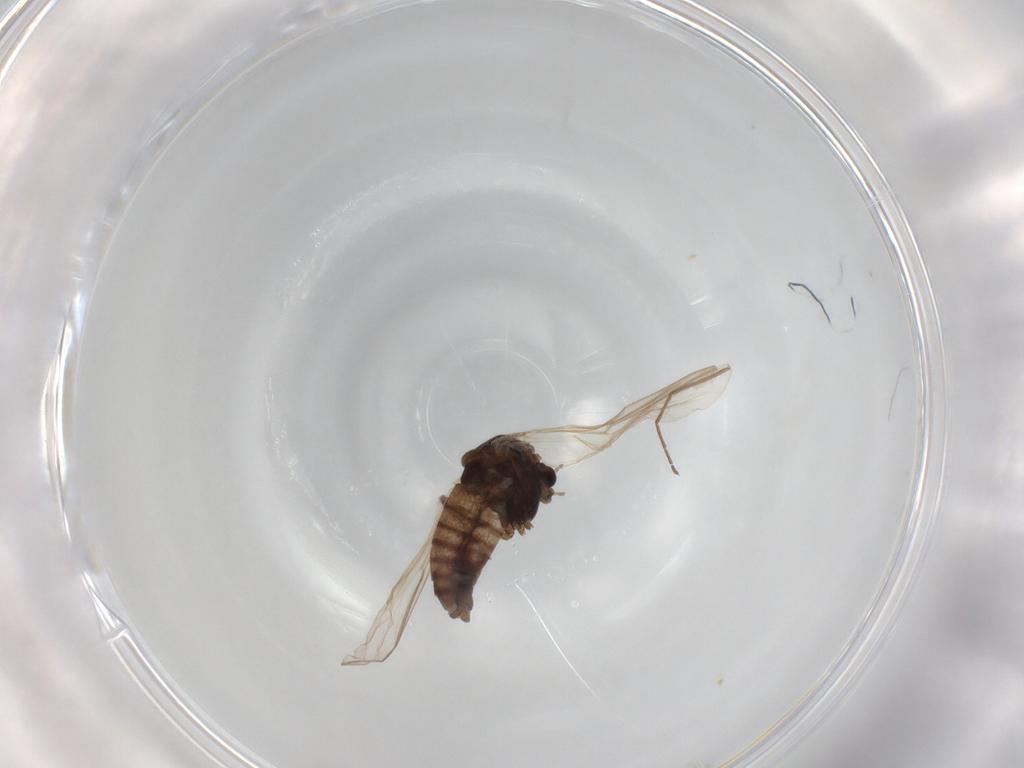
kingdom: Animalia
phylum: Arthropoda
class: Insecta
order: Diptera
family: Chironomidae
